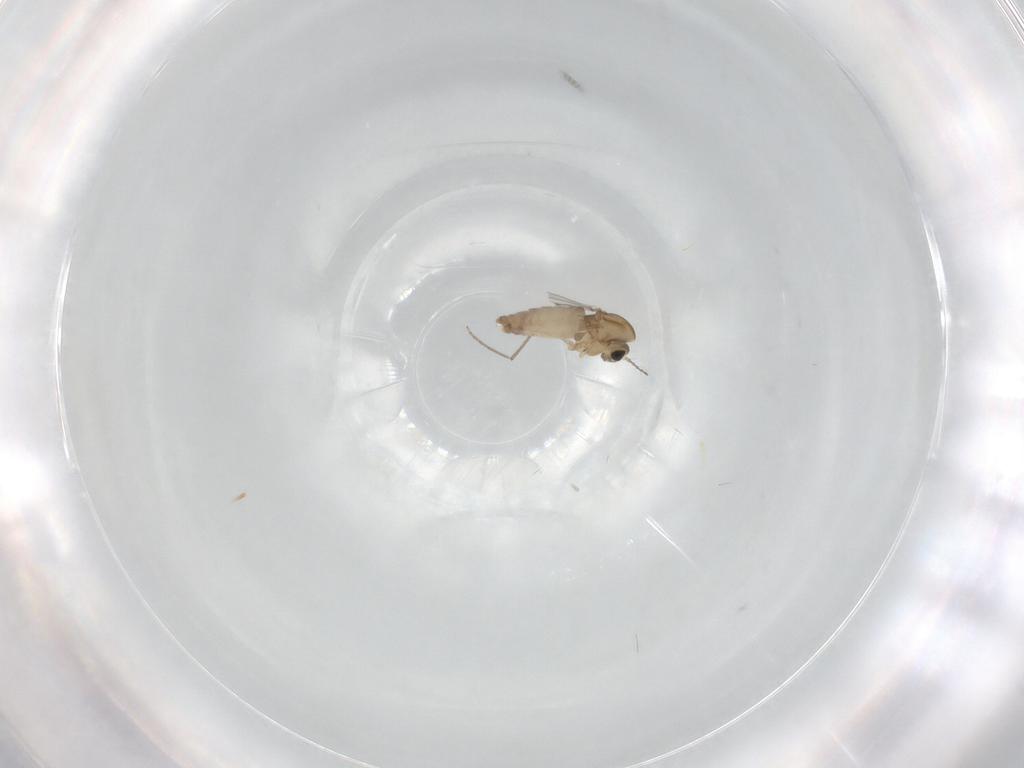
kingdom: Animalia
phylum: Arthropoda
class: Insecta
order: Diptera
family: Chironomidae
